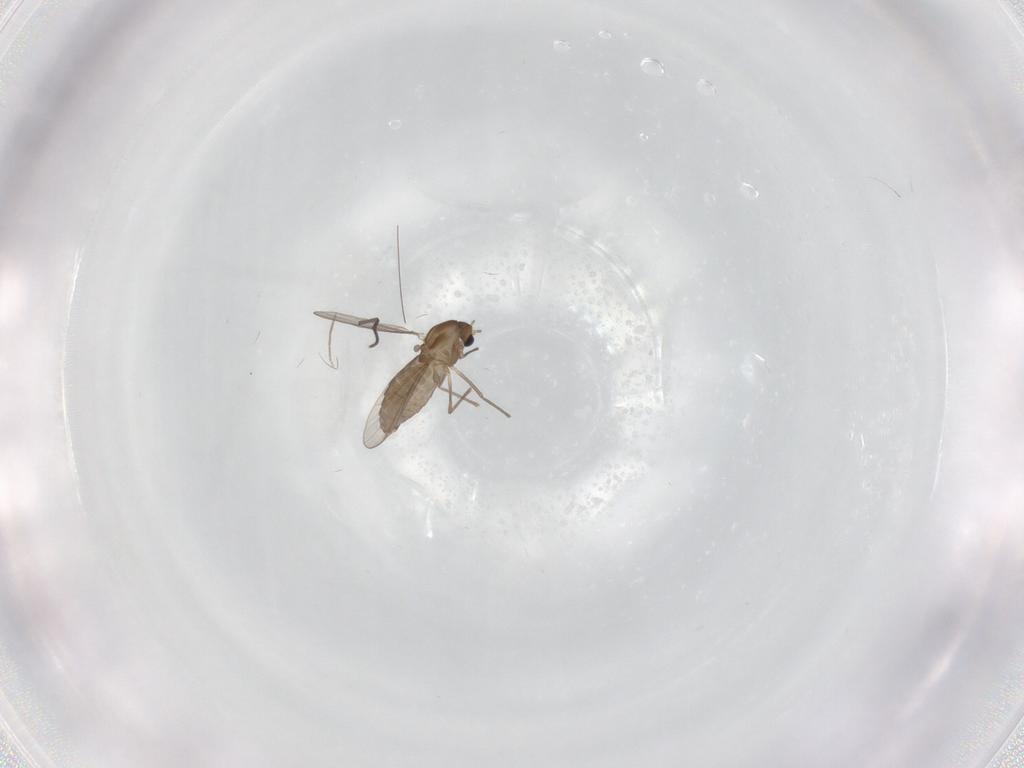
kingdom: Animalia
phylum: Arthropoda
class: Insecta
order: Diptera
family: Chironomidae
